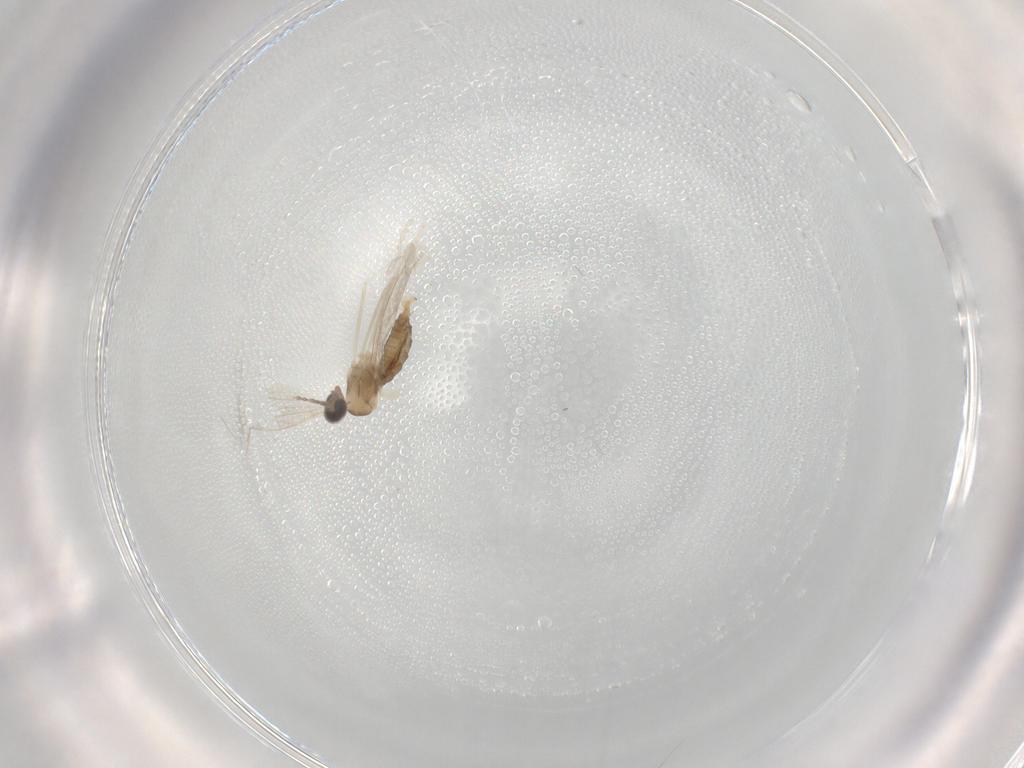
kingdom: Animalia
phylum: Arthropoda
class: Insecta
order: Diptera
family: Cecidomyiidae
